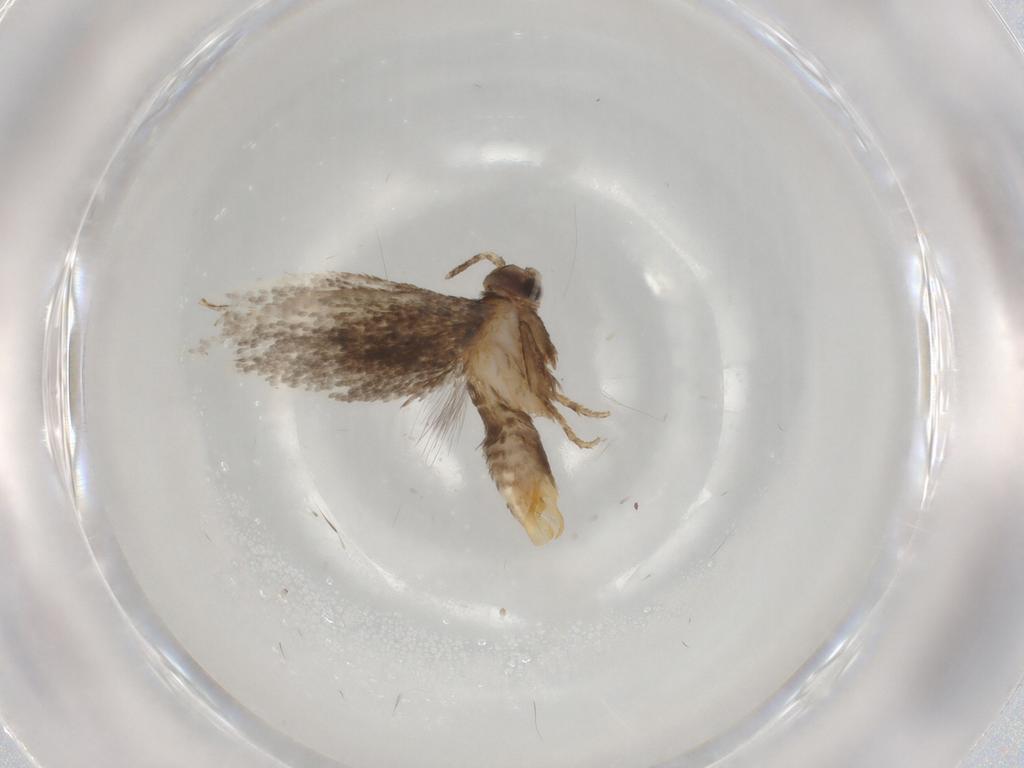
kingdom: Animalia
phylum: Arthropoda
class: Insecta
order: Lepidoptera
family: Tineidae
